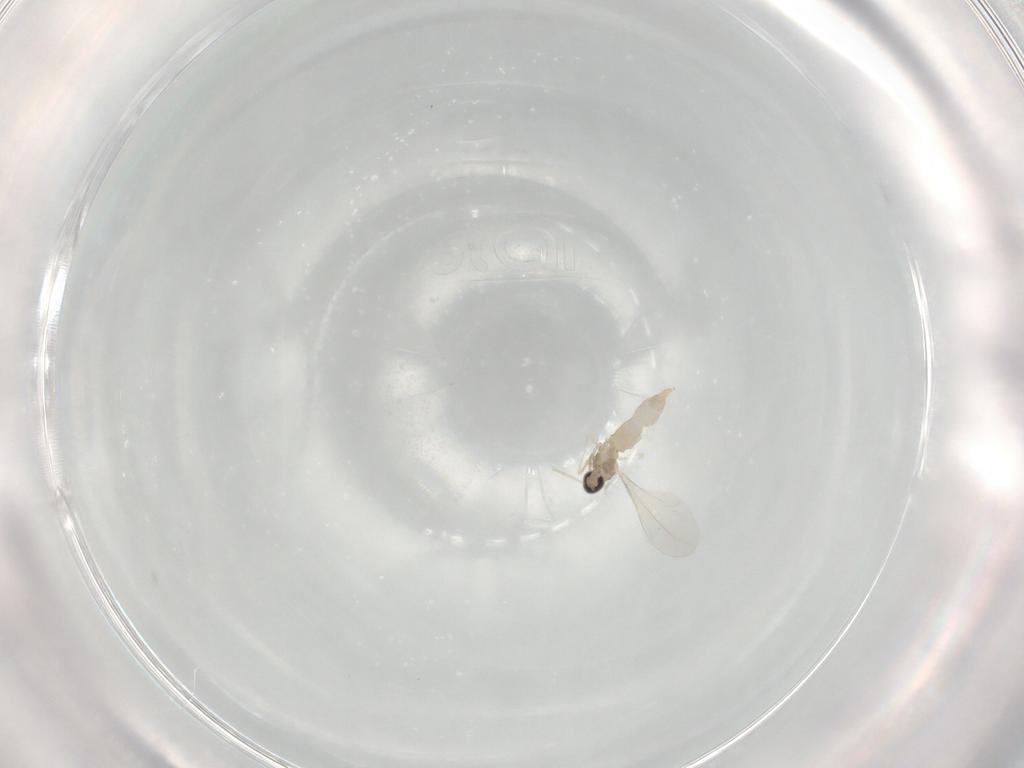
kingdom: Animalia
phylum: Arthropoda
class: Insecta
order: Diptera
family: Cecidomyiidae
